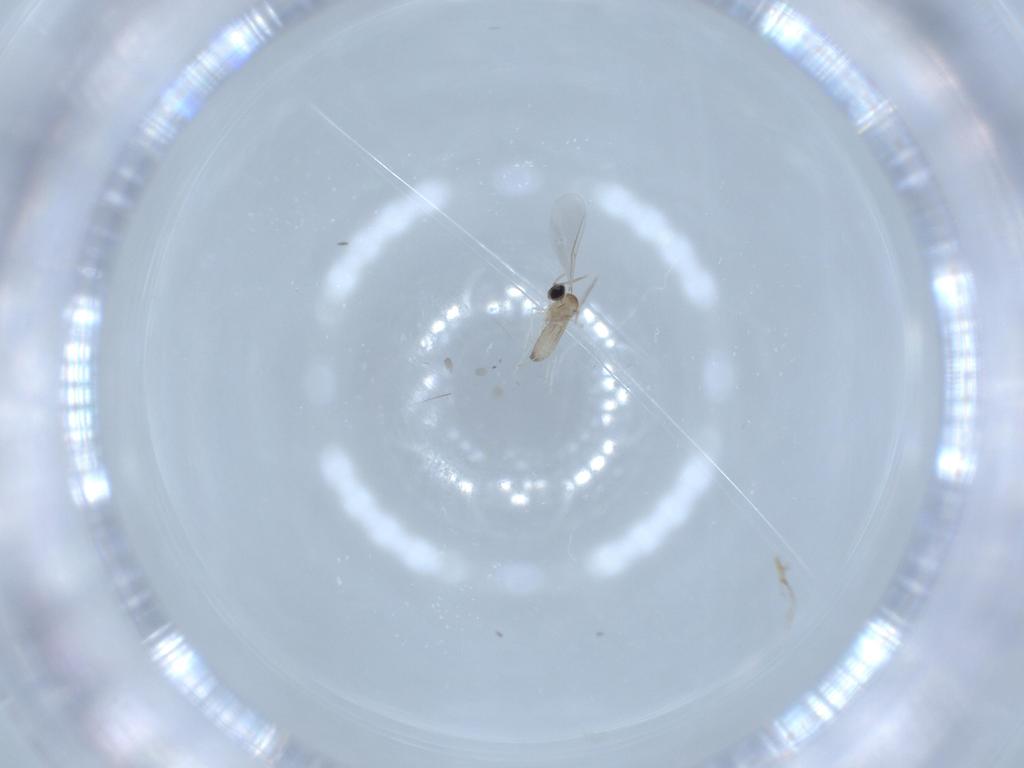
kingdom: Animalia
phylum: Arthropoda
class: Insecta
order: Diptera
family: Cecidomyiidae
